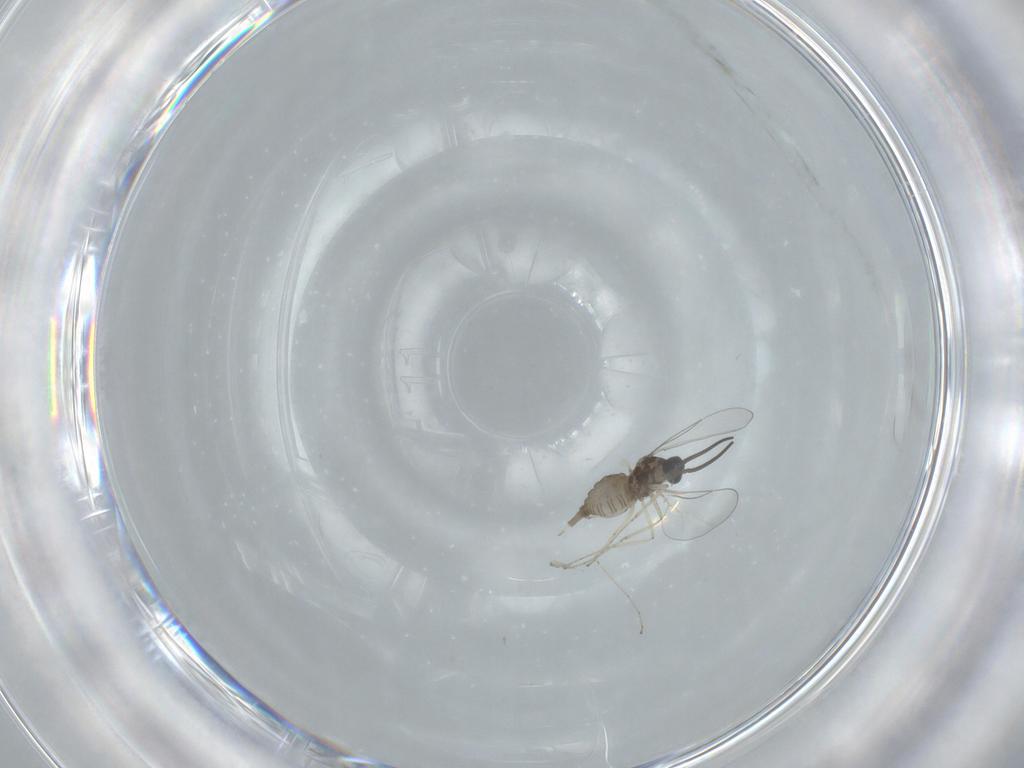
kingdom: Animalia
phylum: Arthropoda
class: Insecta
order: Diptera
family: Cecidomyiidae
